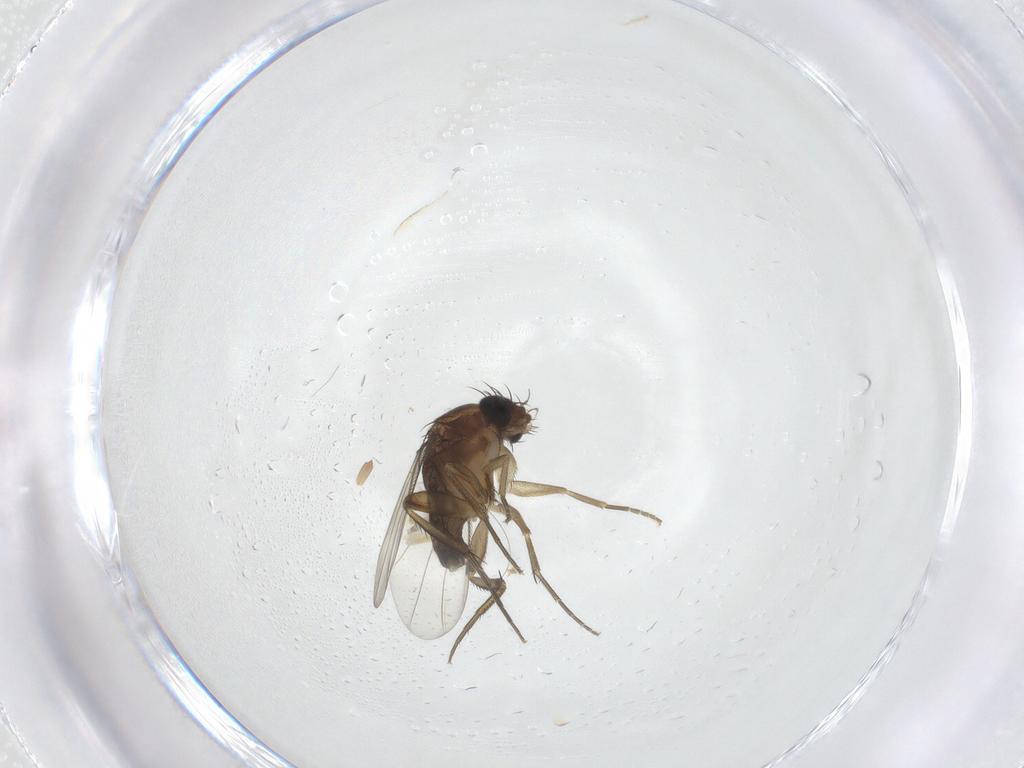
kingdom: Animalia
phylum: Arthropoda
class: Insecta
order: Diptera
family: Phoridae
